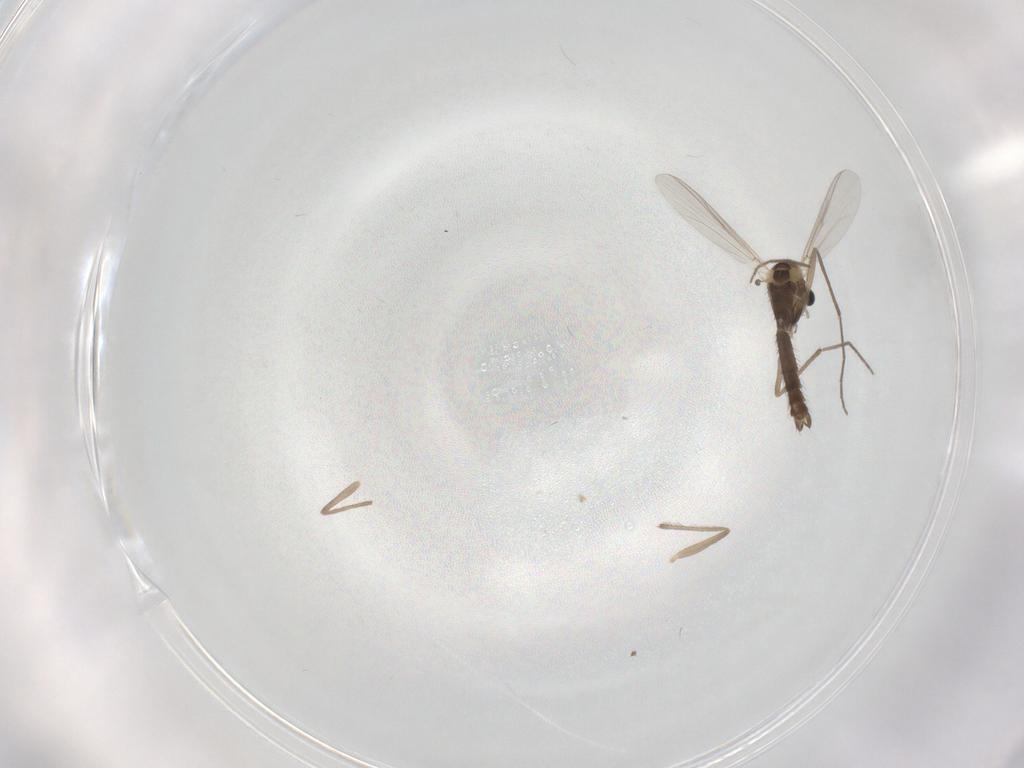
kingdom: Animalia
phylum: Arthropoda
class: Insecta
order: Diptera
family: Chironomidae
